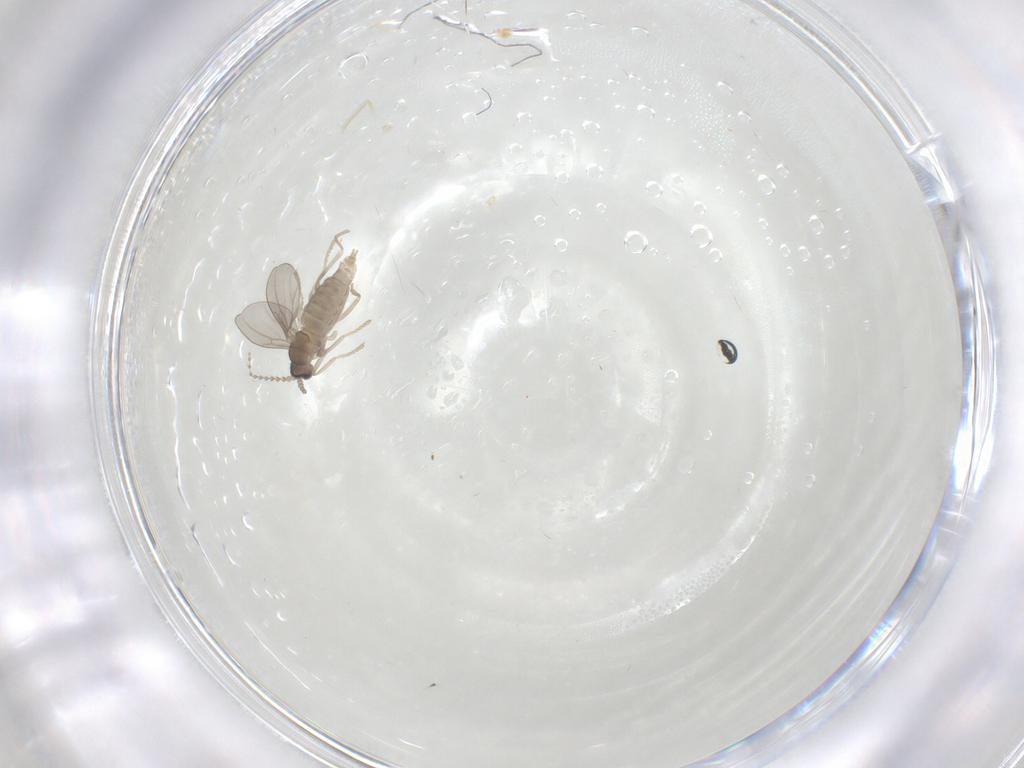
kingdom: Animalia
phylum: Arthropoda
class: Insecta
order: Diptera
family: Cecidomyiidae
